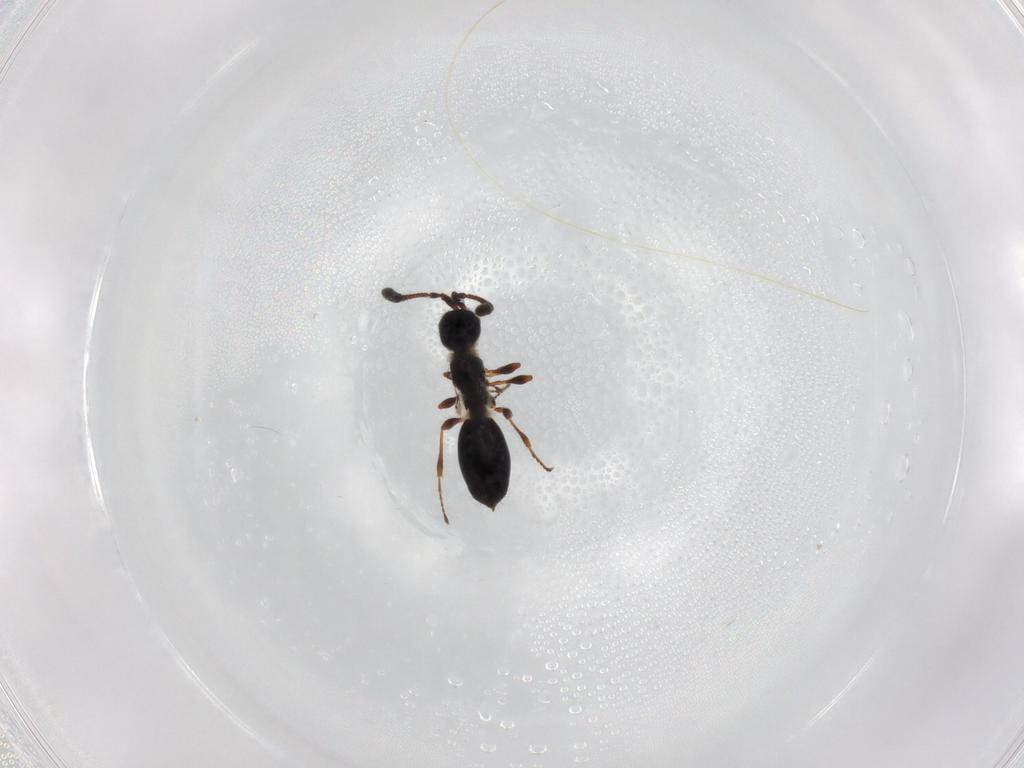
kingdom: Animalia
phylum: Arthropoda
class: Insecta
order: Hymenoptera
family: Diapriidae
